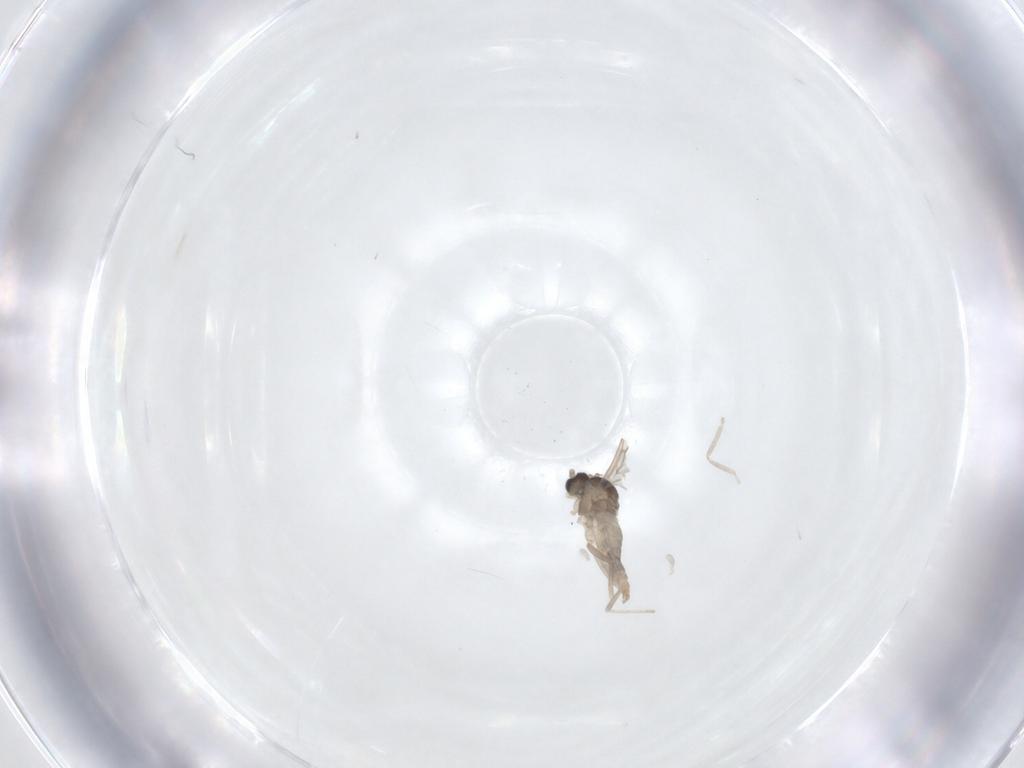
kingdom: Animalia
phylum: Arthropoda
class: Insecta
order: Diptera
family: Cecidomyiidae
